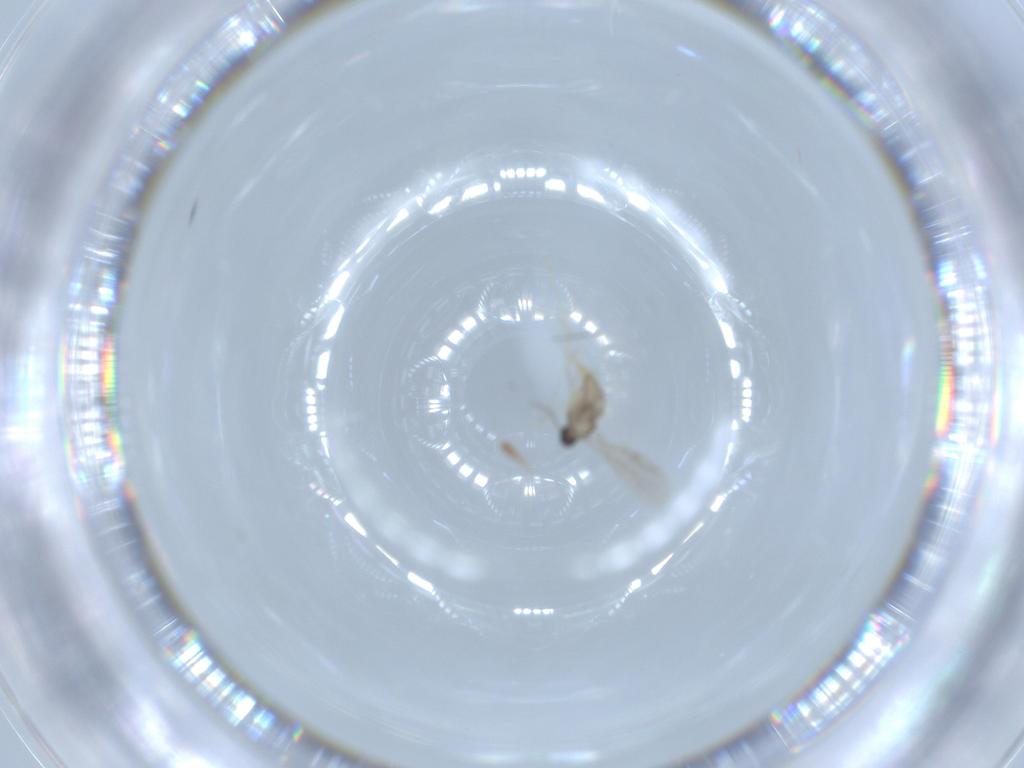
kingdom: Animalia
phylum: Arthropoda
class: Insecta
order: Diptera
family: Cecidomyiidae
